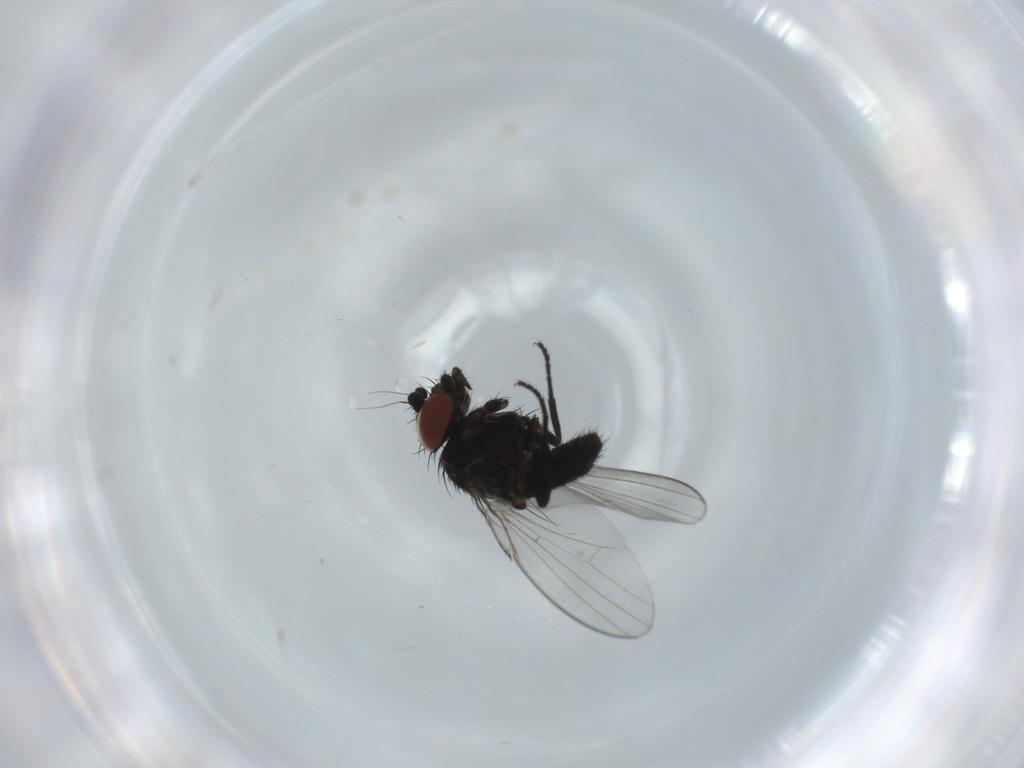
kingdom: Animalia
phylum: Arthropoda
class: Insecta
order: Diptera
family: Milichiidae
